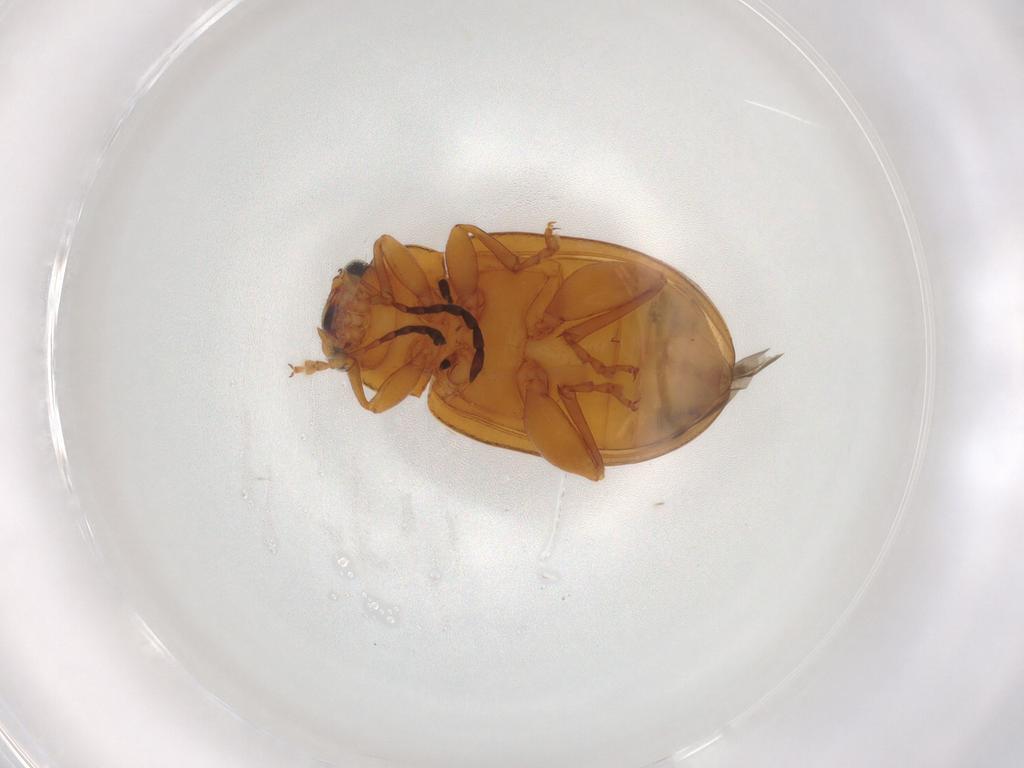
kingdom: Animalia
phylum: Arthropoda
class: Insecta
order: Coleoptera
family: Chrysomelidae
